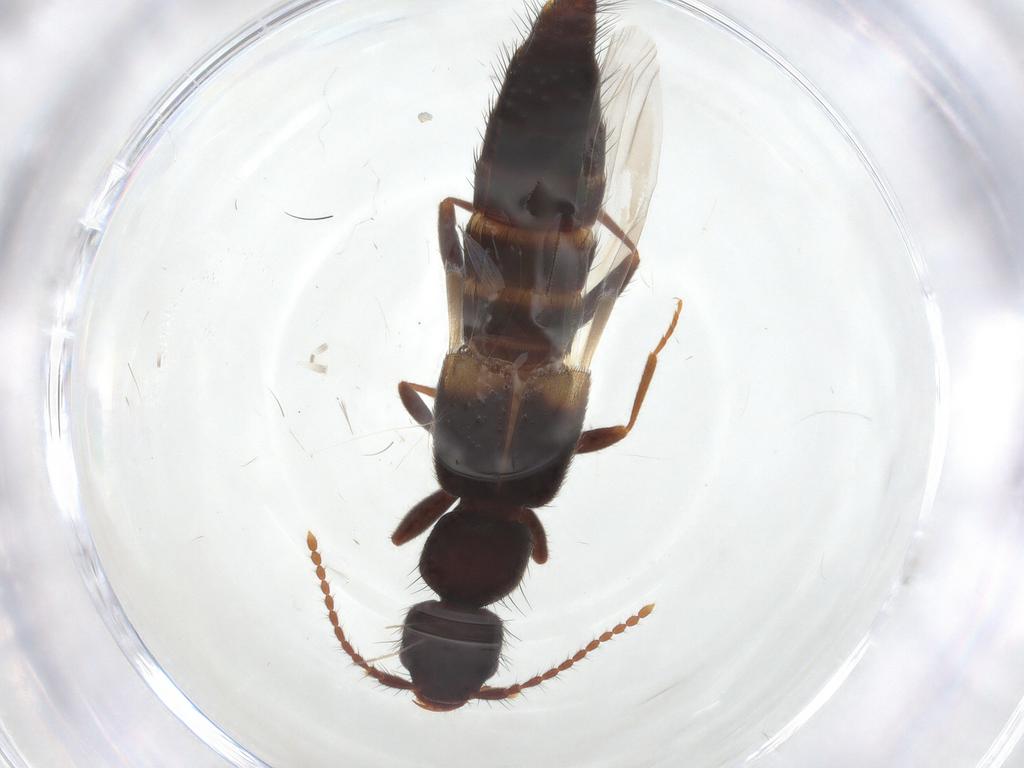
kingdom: Animalia
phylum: Arthropoda
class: Insecta
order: Coleoptera
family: Staphylinidae
